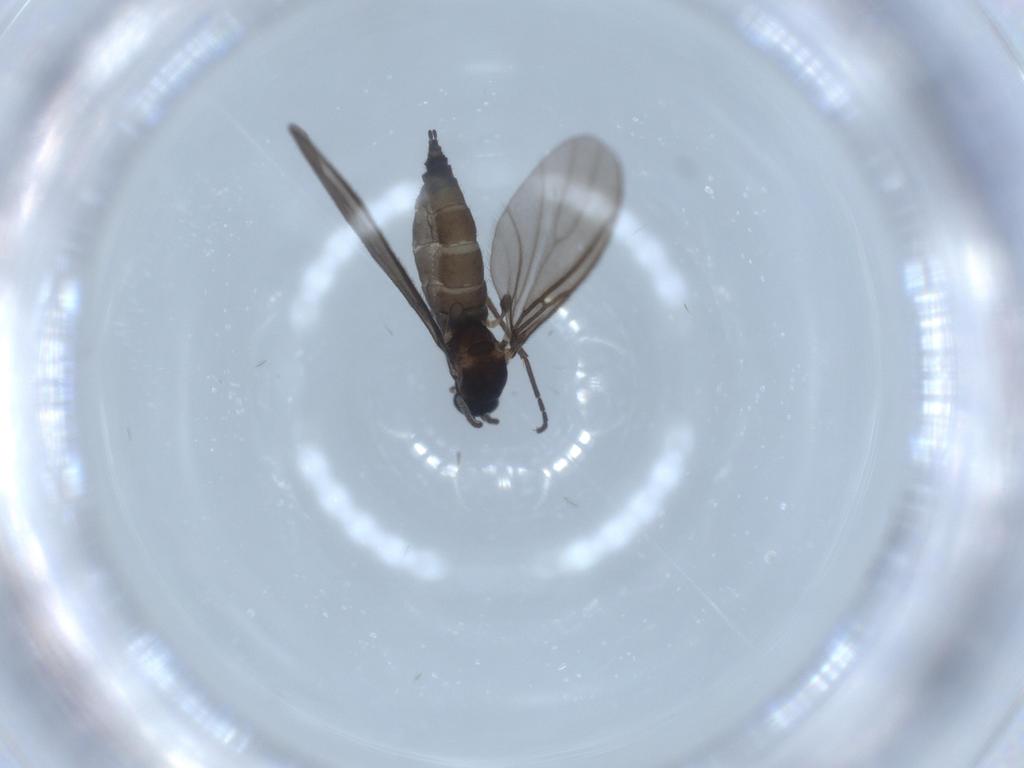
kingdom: Animalia
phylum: Arthropoda
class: Insecta
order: Diptera
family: Sciaridae
